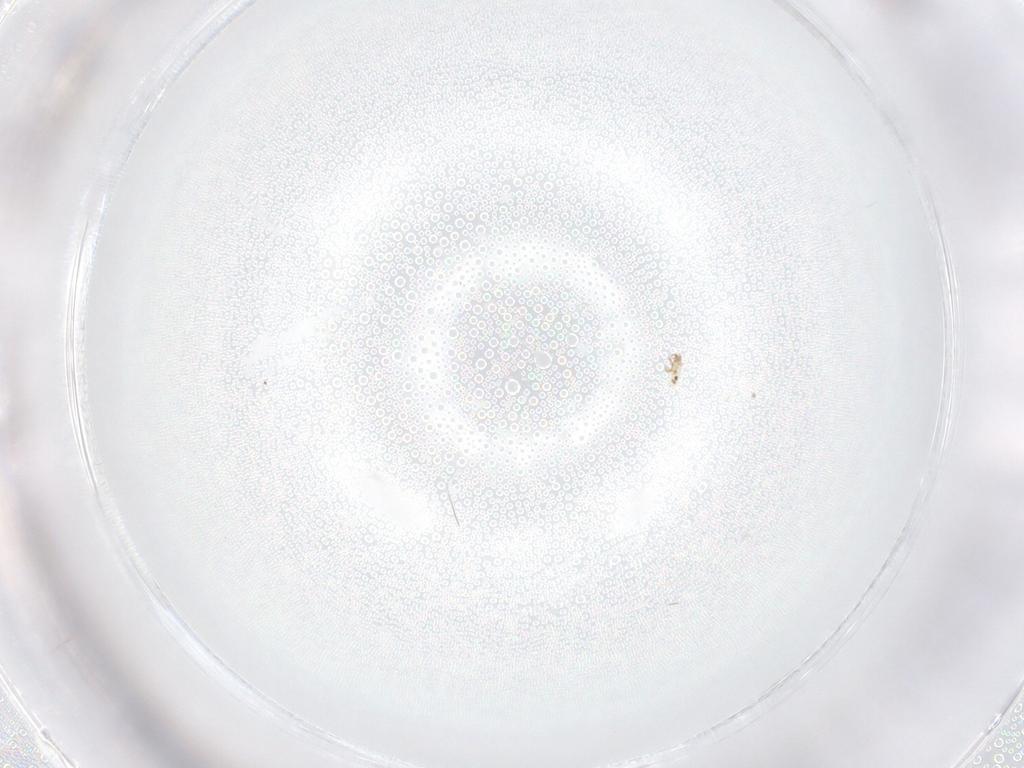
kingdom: Animalia
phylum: Arthropoda
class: Arachnida
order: Sarcoptiformes
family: Humerobatidae
